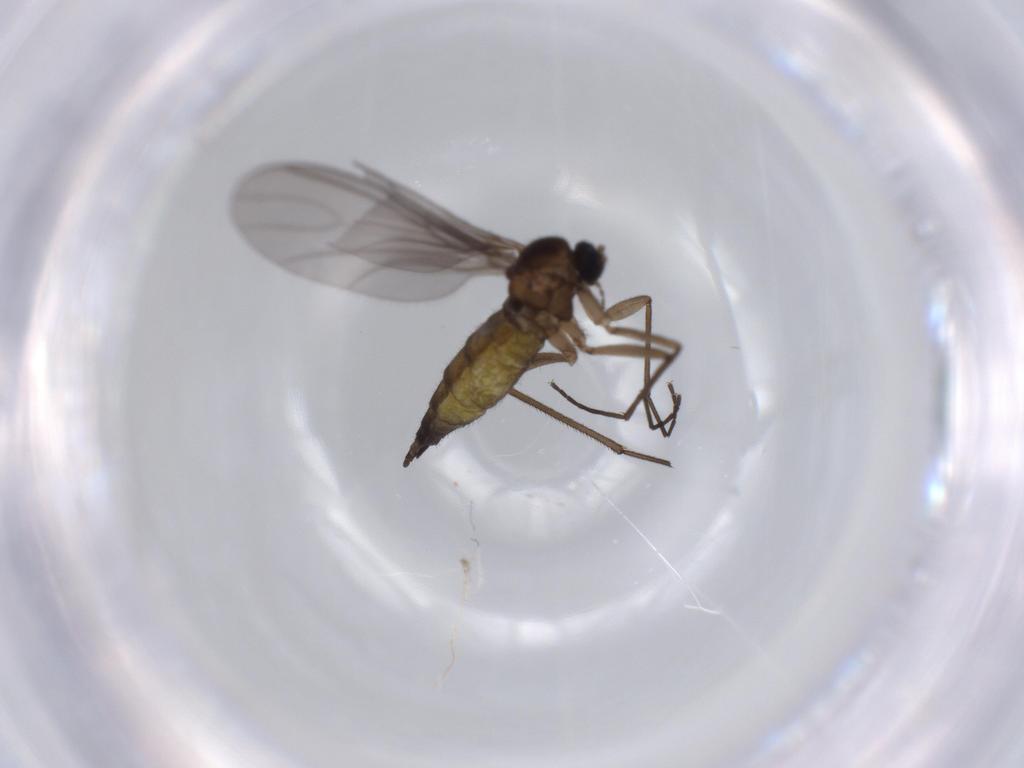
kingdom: Animalia
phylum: Arthropoda
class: Insecta
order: Diptera
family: Sciaridae
